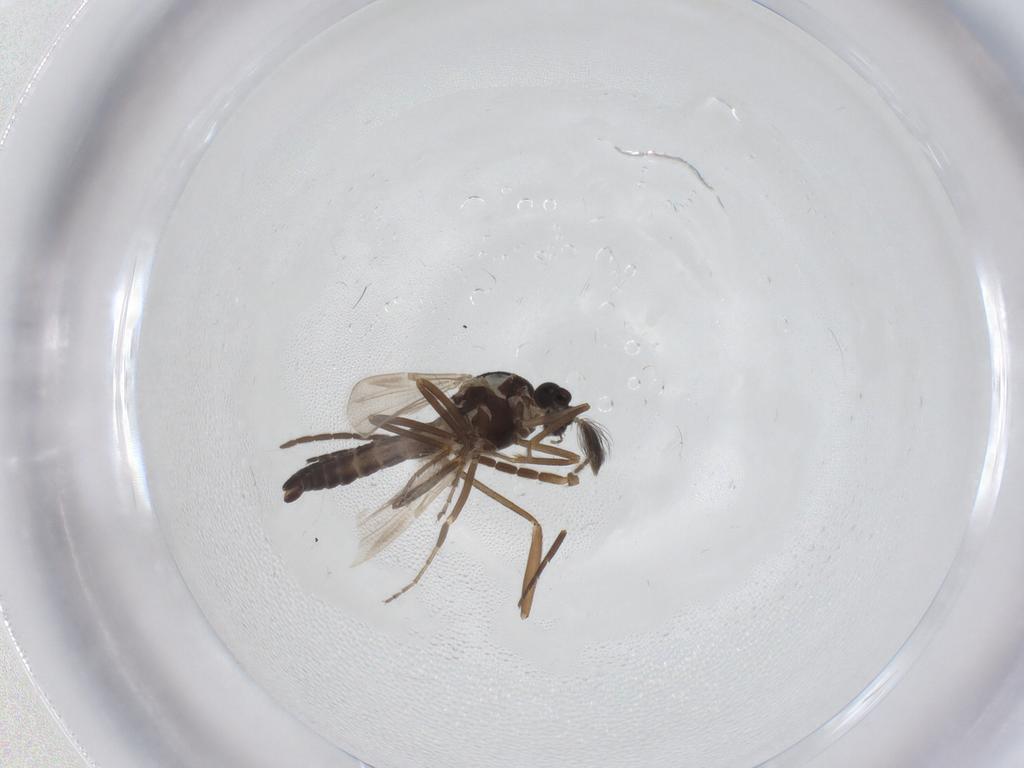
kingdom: Animalia
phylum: Arthropoda
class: Insecta
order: Diptera
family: Ceratopogonidae
